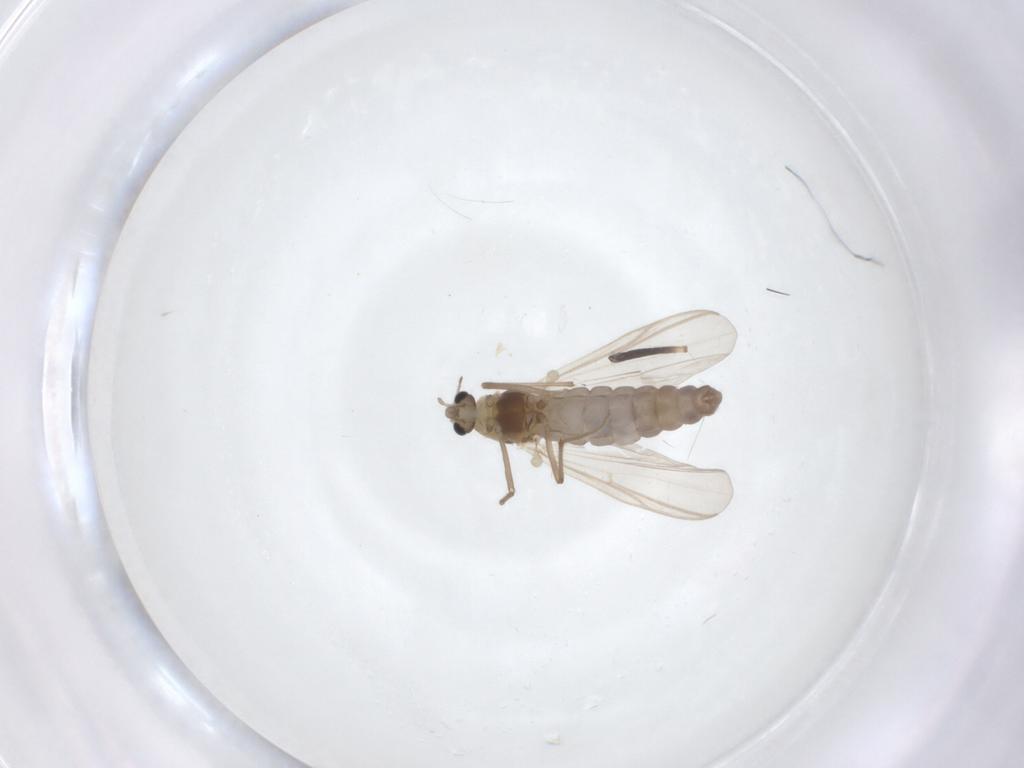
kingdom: Animalia
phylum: Arthropoda
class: Insecta
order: Diptera
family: Chironomidae
